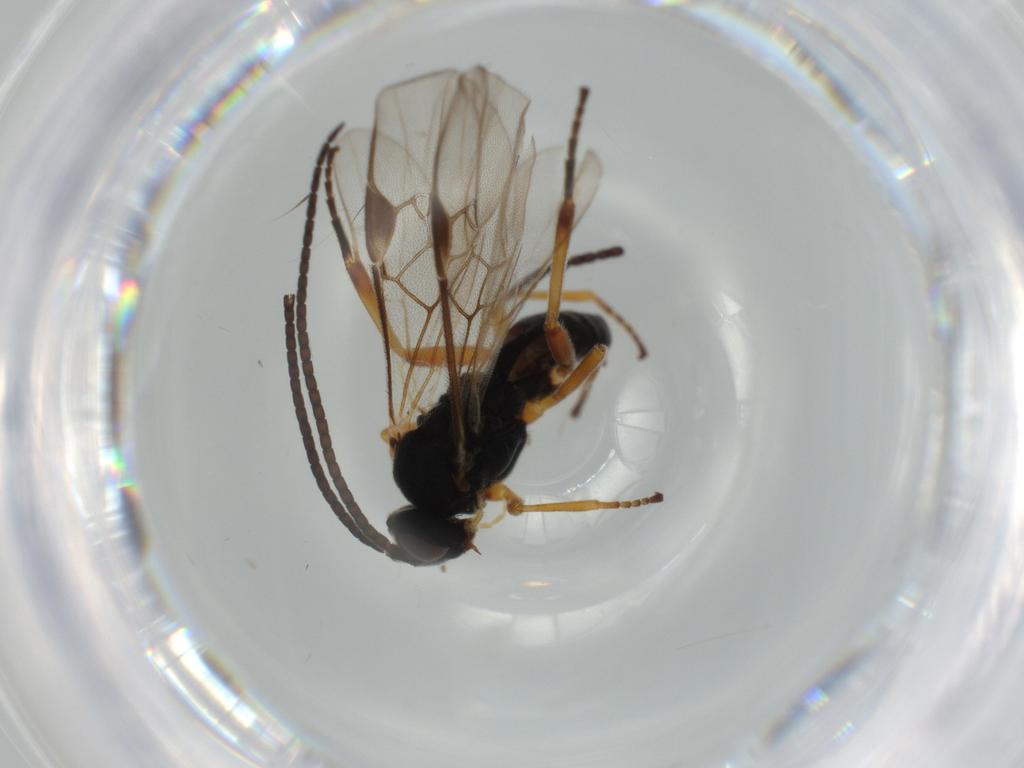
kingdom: Animalia
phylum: Arthropoda
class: Insecta
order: Hymenoptera
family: Braconidae
